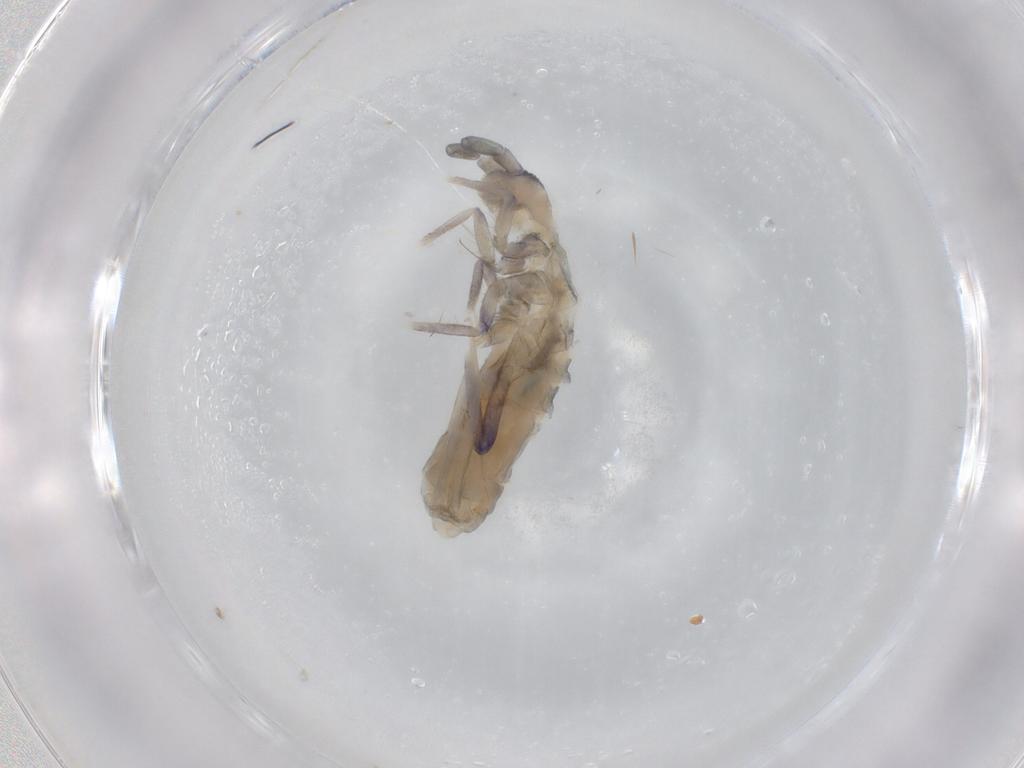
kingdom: Animalia
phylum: Arthropoda
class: Collembola
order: Entomobryomorpha
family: Tomoceridae
